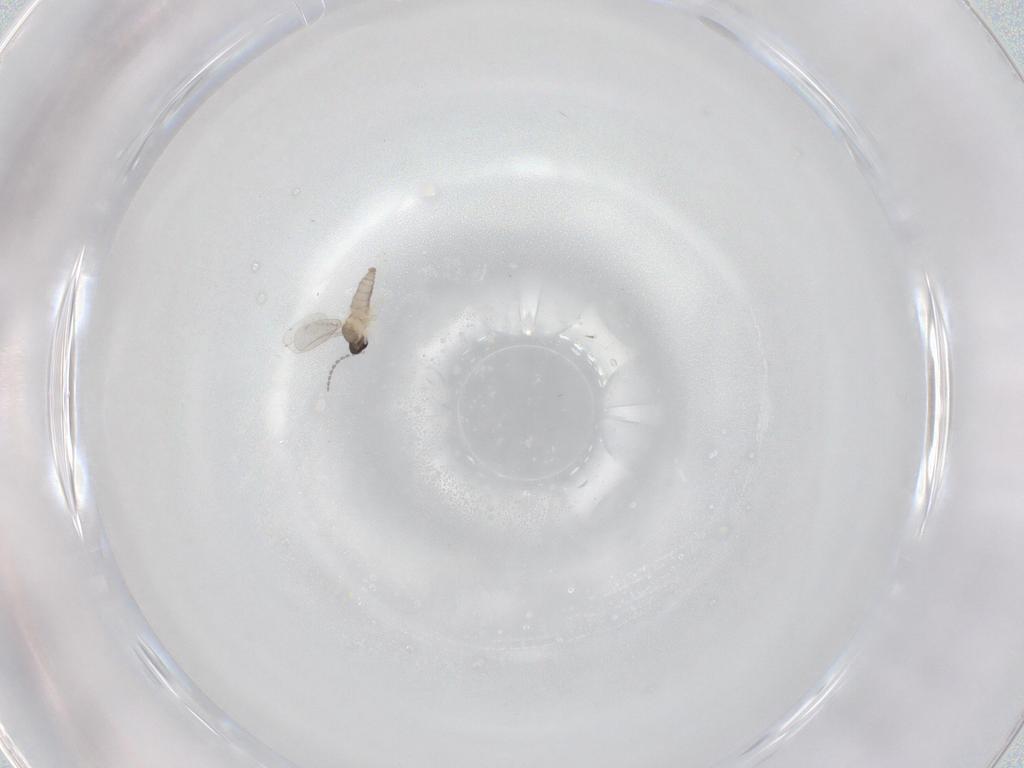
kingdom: Animalia
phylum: Arthropoda
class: Insecta
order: Diptera
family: Cecidomyiidae
